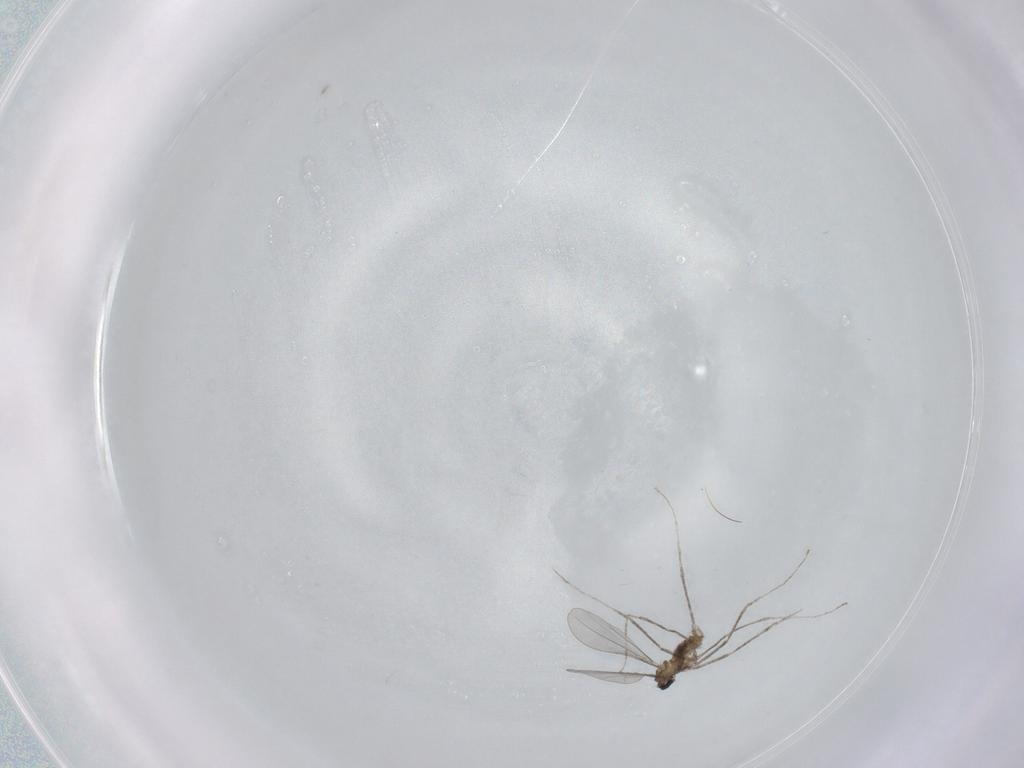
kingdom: Animalia
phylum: Arthropoda
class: Insecta
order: Diptera
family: Cecidomyiidae
